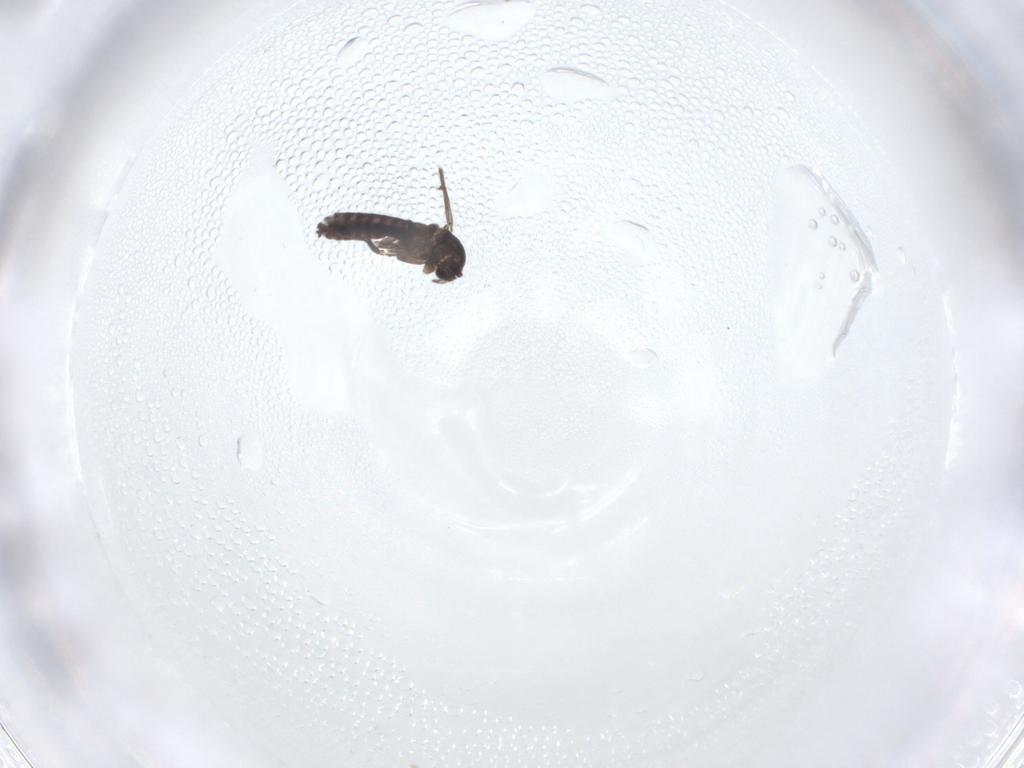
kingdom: Animalia
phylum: Arthropoda
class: Insecta
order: Diptera
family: Chironomidae
